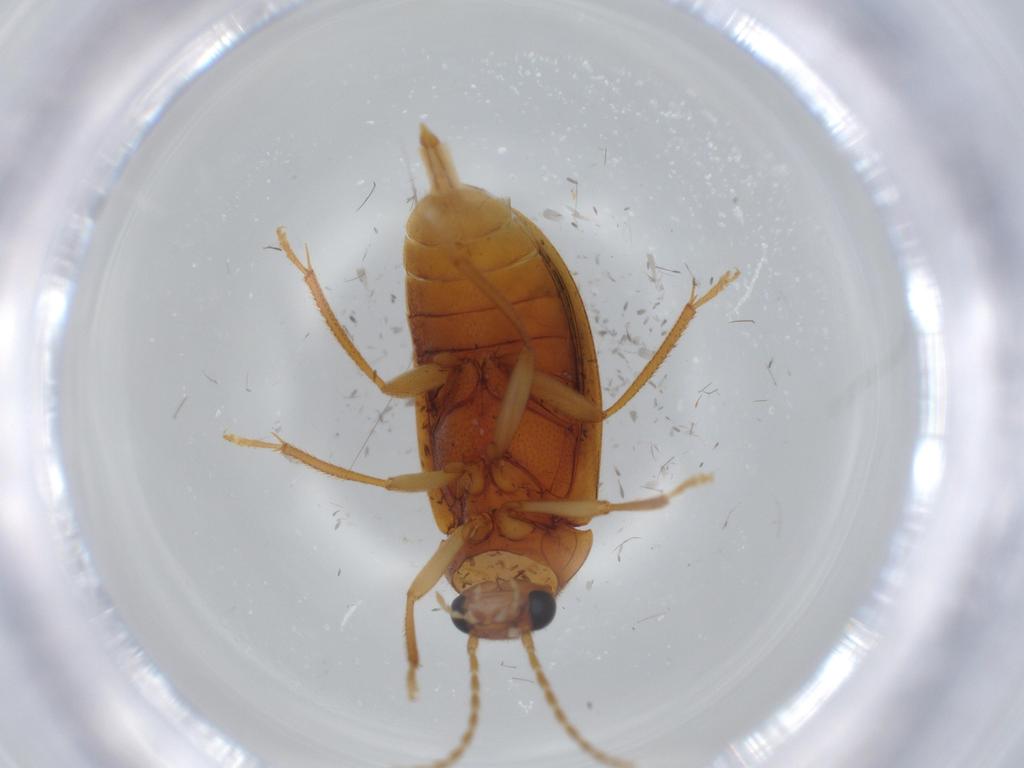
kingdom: Animalia
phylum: Arthropoda
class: Insecta
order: Coleoptera
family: Ptilodactylidae
